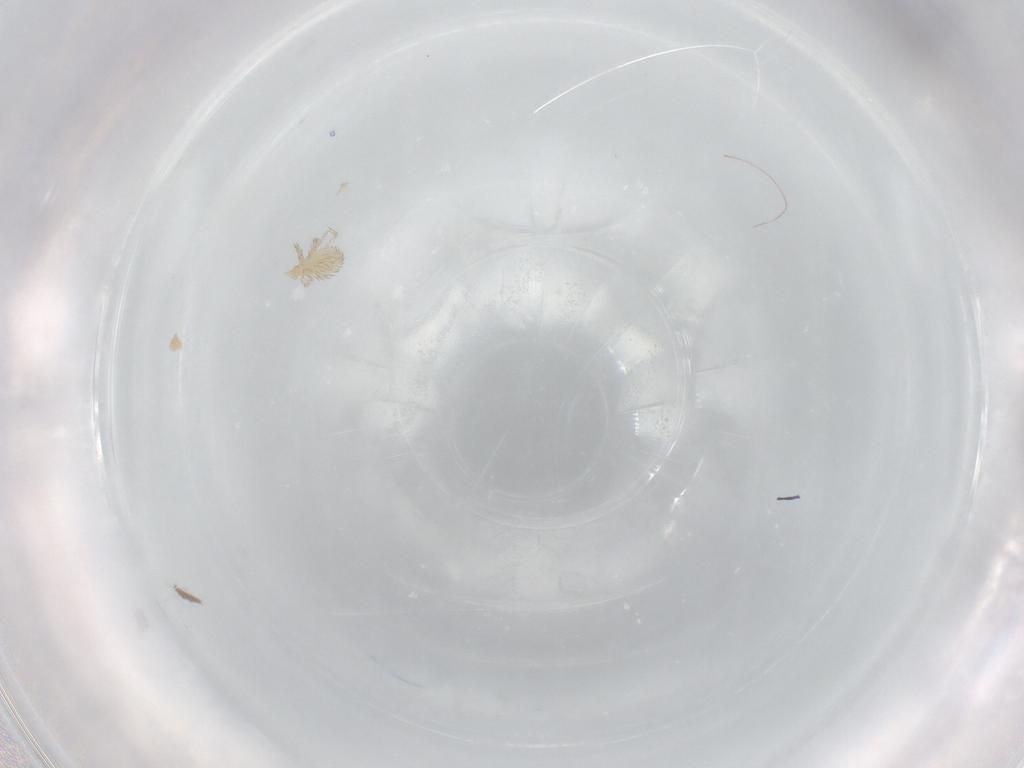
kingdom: Animalia
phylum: Arthropoda
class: Arachnida
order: Trombidiformes
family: Erythraeidae
